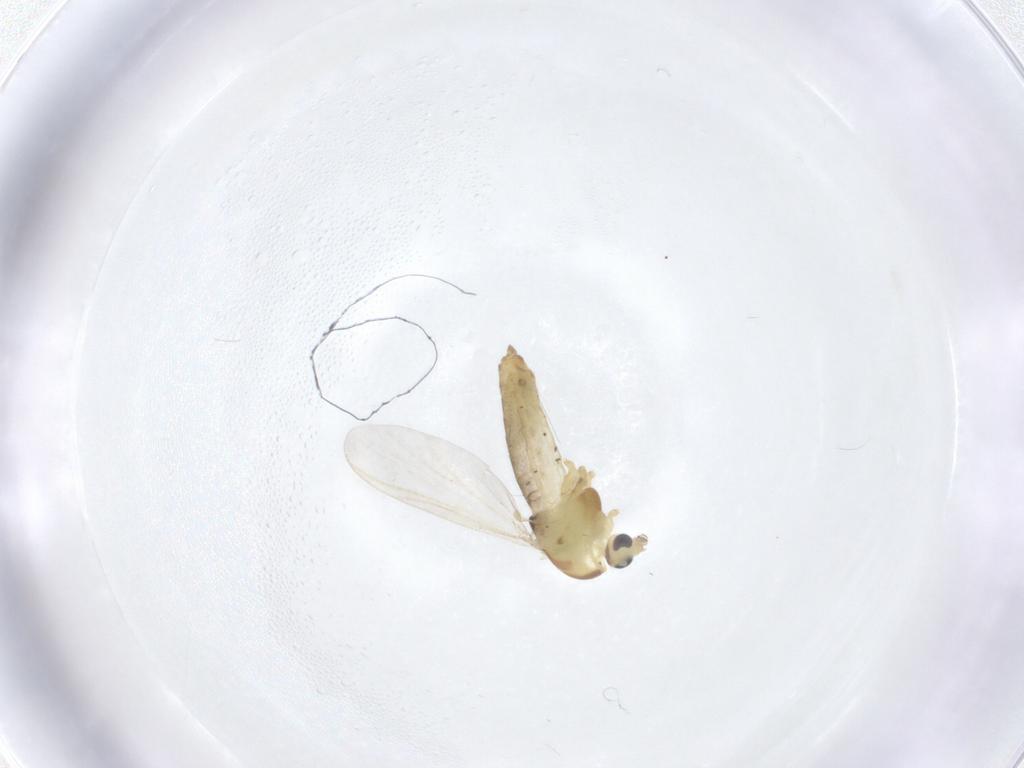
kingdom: Animalia
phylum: Arthropoda
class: Insecta
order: Diptera
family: Chironomidae
